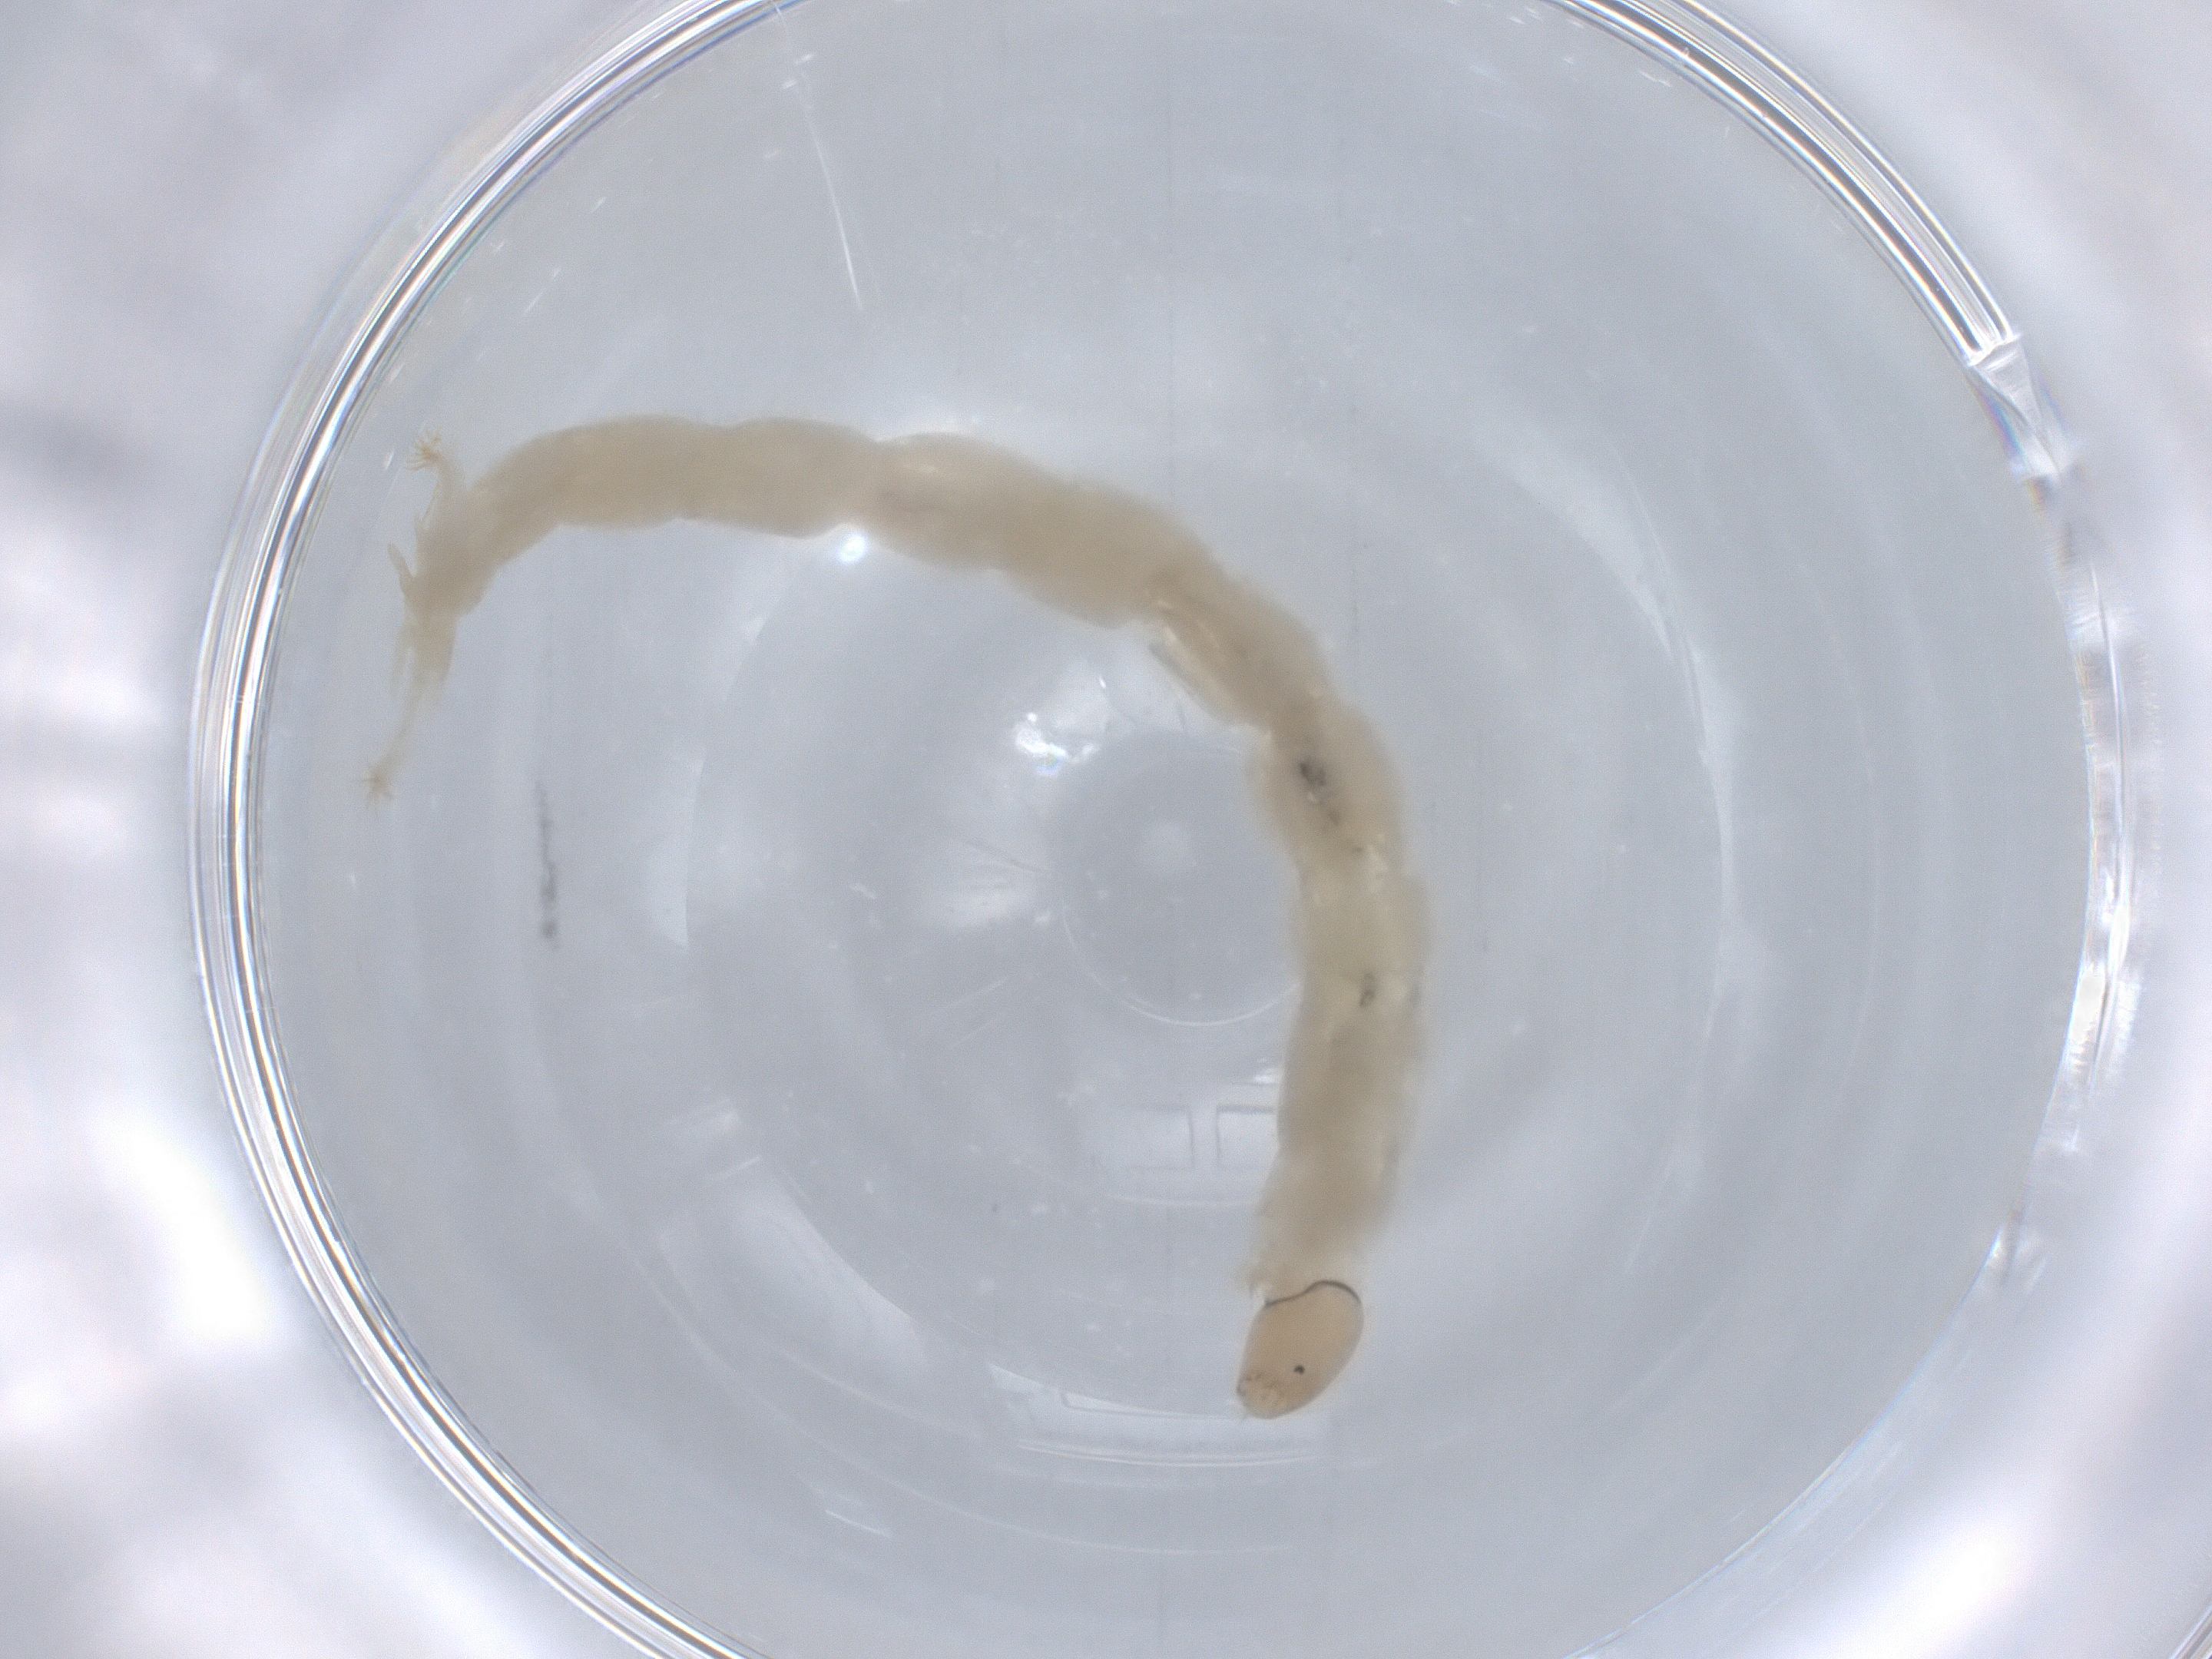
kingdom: Animalia
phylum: Arthropoda
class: Insecta
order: Diptera
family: Chironomidae
